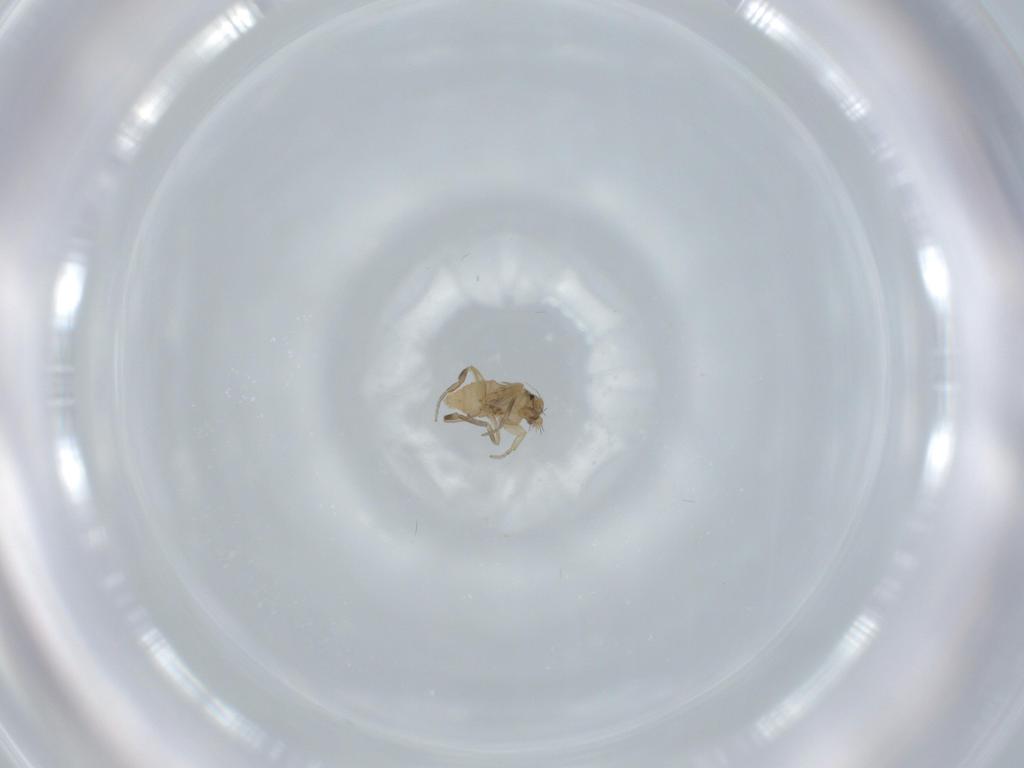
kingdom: Animalia
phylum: Arthropoda
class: Insecta
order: Diptera
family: Phoridae
